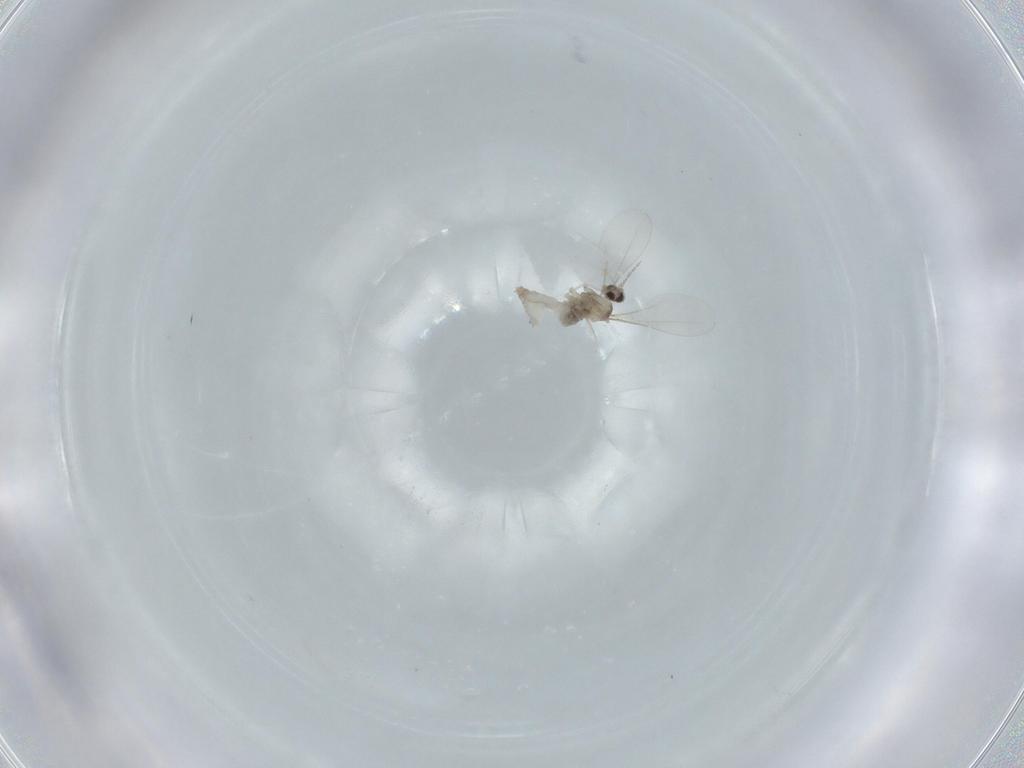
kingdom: Animalia
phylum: Arthropoda
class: Insecta
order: Diptera
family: Cecidomyiidae
